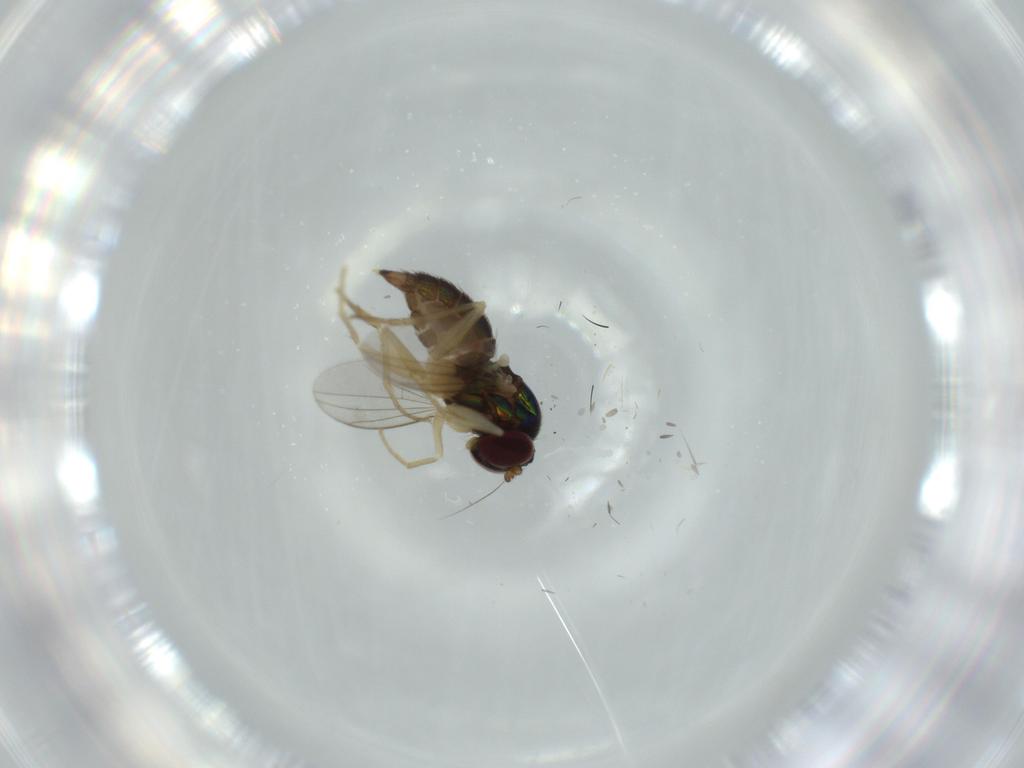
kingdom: Animalia
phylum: Arthropoda
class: Insecta
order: Diptera
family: Dolichopodidae
